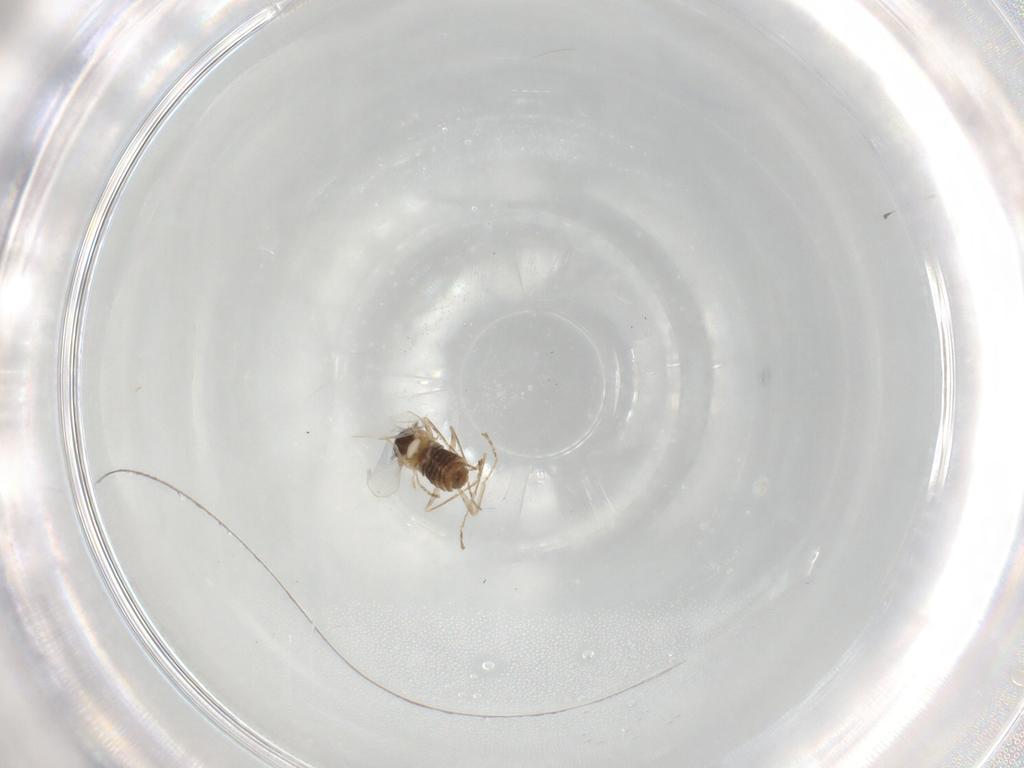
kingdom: Animalia
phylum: Arthropoda
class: Insecta
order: Diptera
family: Cecidomyiidae
